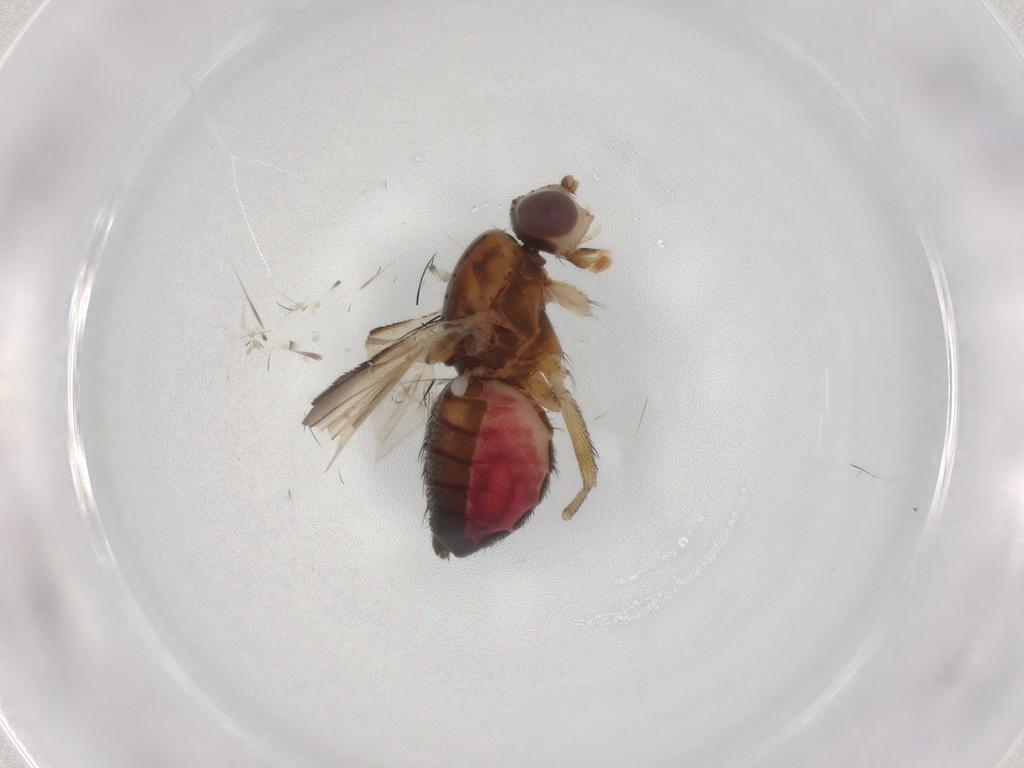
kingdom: Animalia
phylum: Arthropoda
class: Insecta
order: Diptera
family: Heleomyzidae
